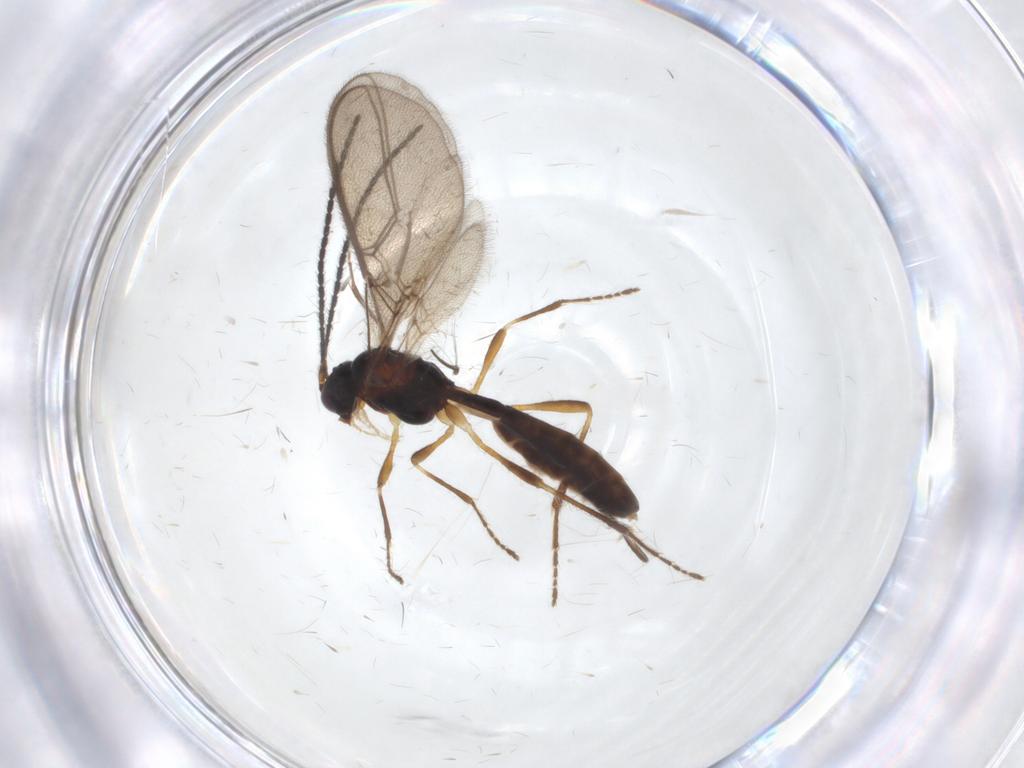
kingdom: Animalia
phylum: Arthropoda
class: Insecta
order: Hymenoptera
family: Braconidae
